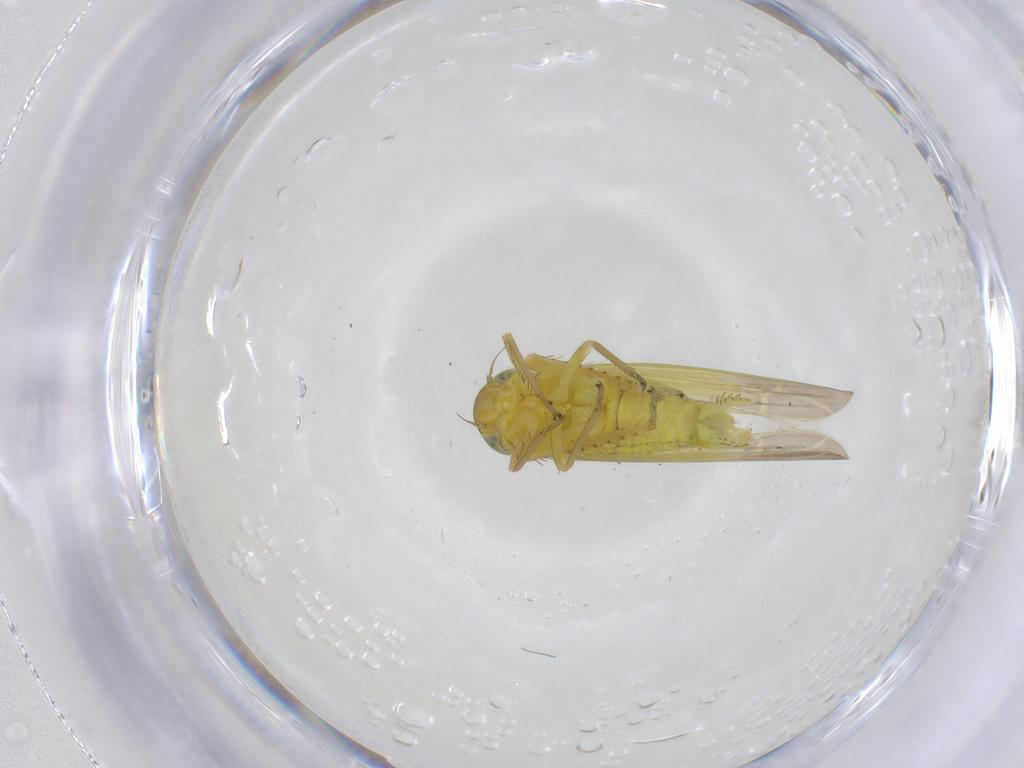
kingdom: Animalia
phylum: Arthropoda
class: Insecta
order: Hemiptera
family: Cicadellidae
